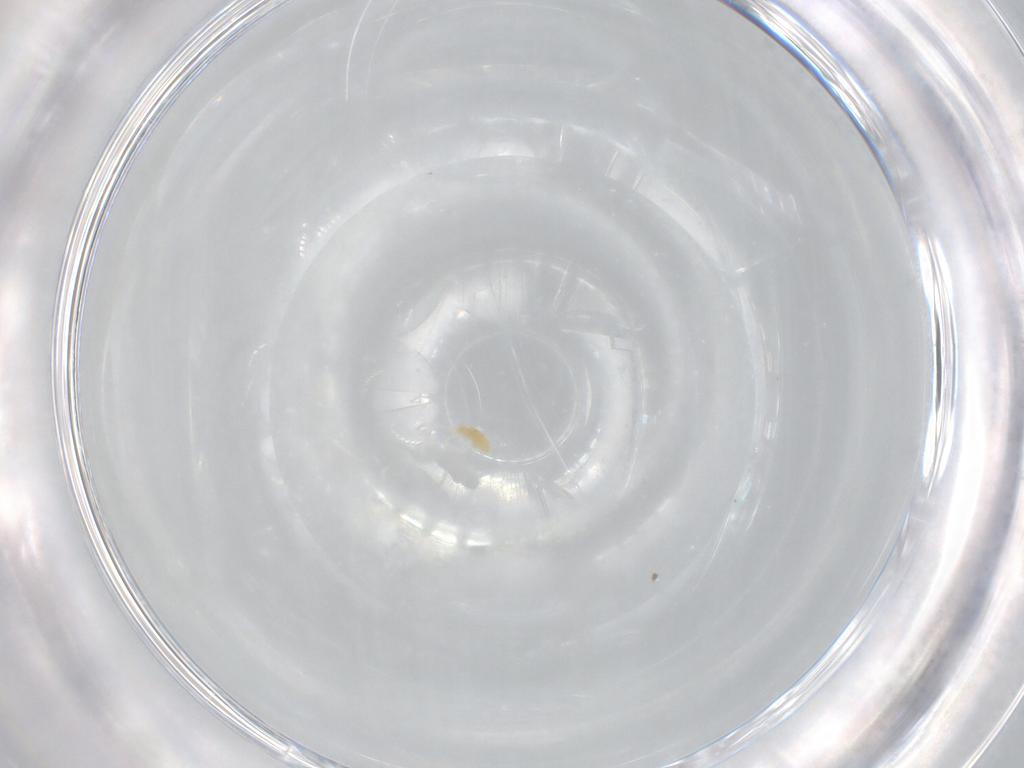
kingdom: Animalia
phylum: Arthropoda
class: Arachnida
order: Trombidiformes
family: Eupodidae
